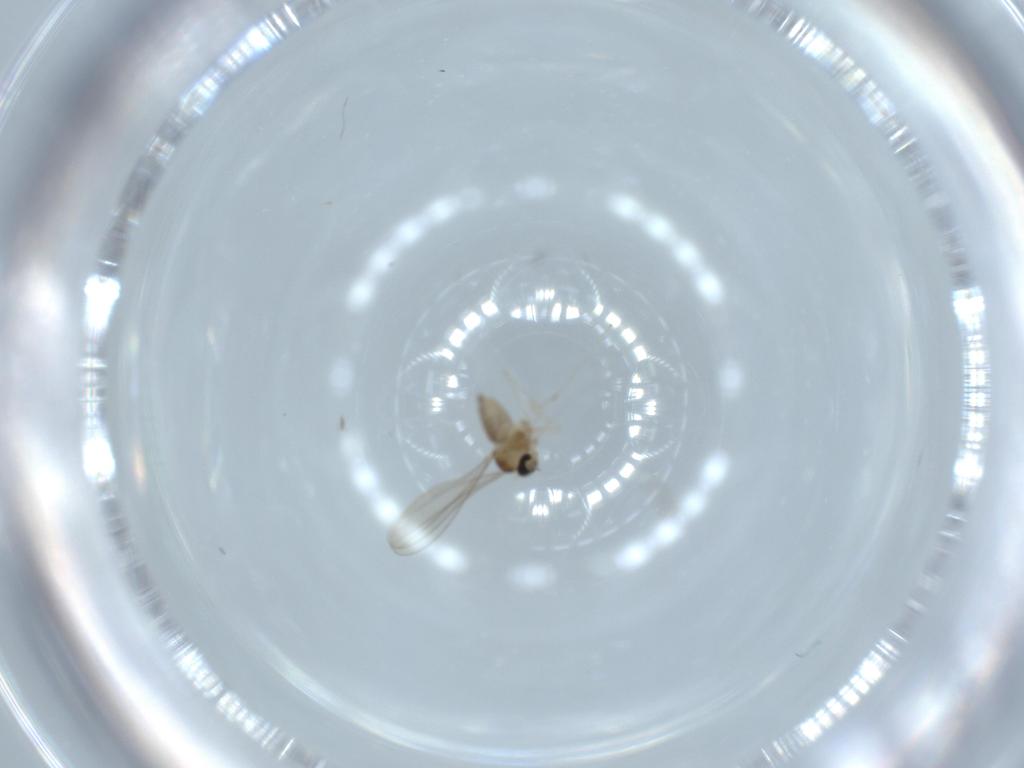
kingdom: Animalia
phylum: Arthropoda
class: Insecta
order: Diptera
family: Cecidomyiidae
